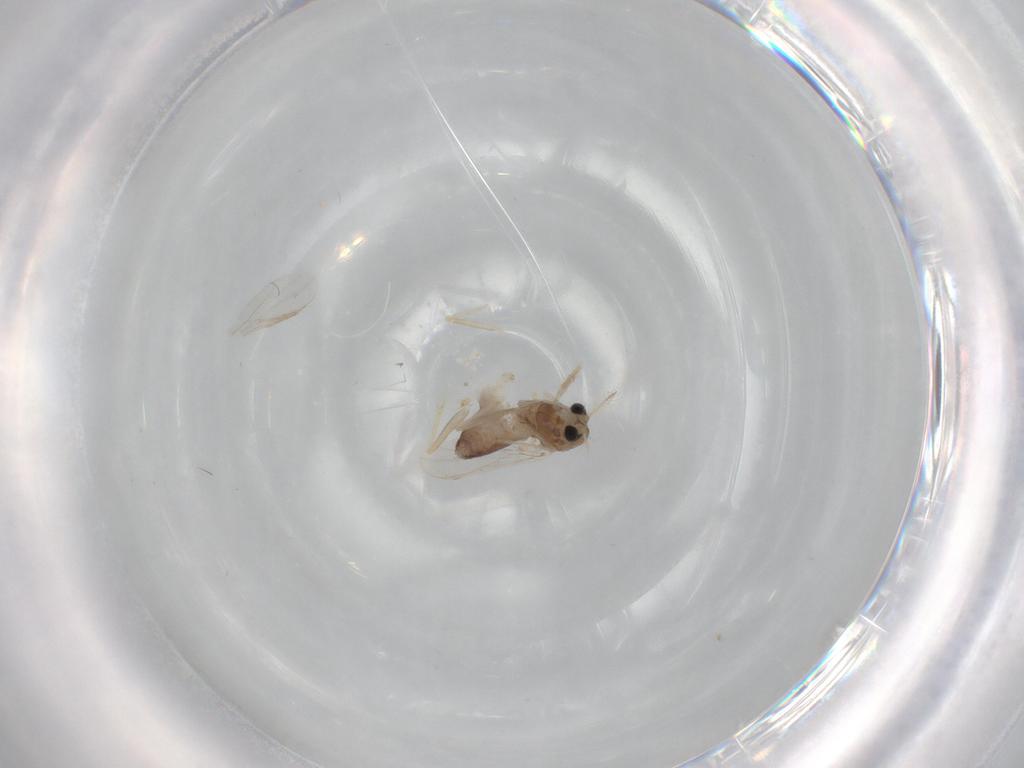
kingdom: Animalia
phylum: Arthropoda
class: Insecta
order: Diptera
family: Chironomidae
